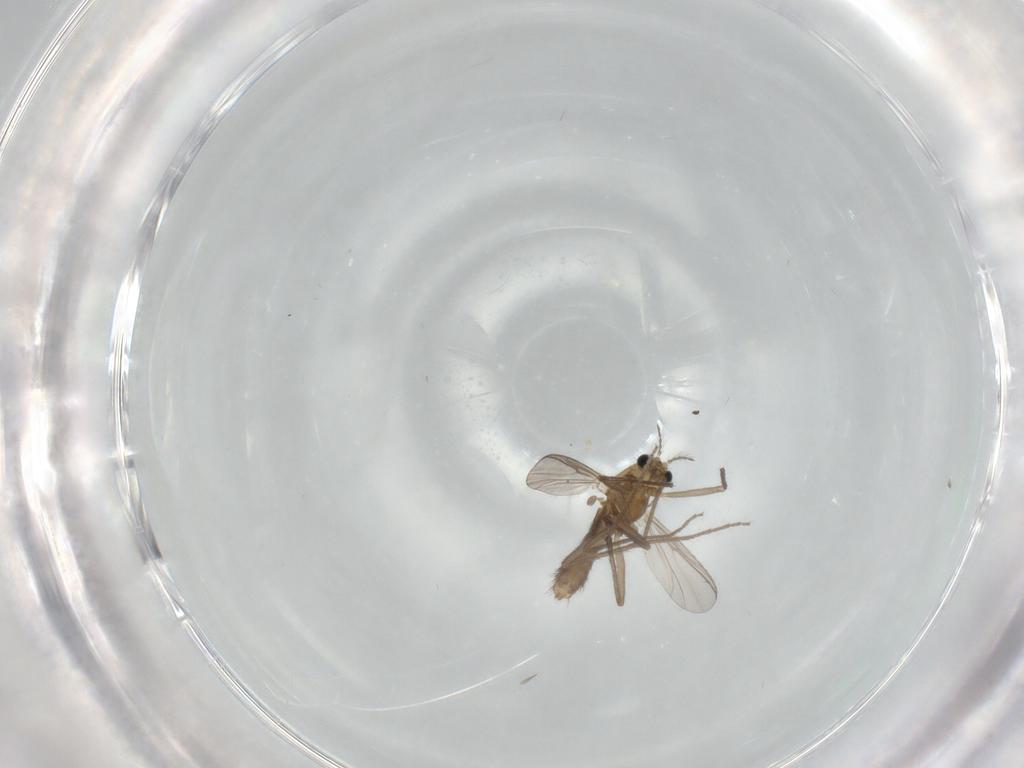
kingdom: Animalia
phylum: Arthropoda
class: Insecta
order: Diptera
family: Chironomidae
